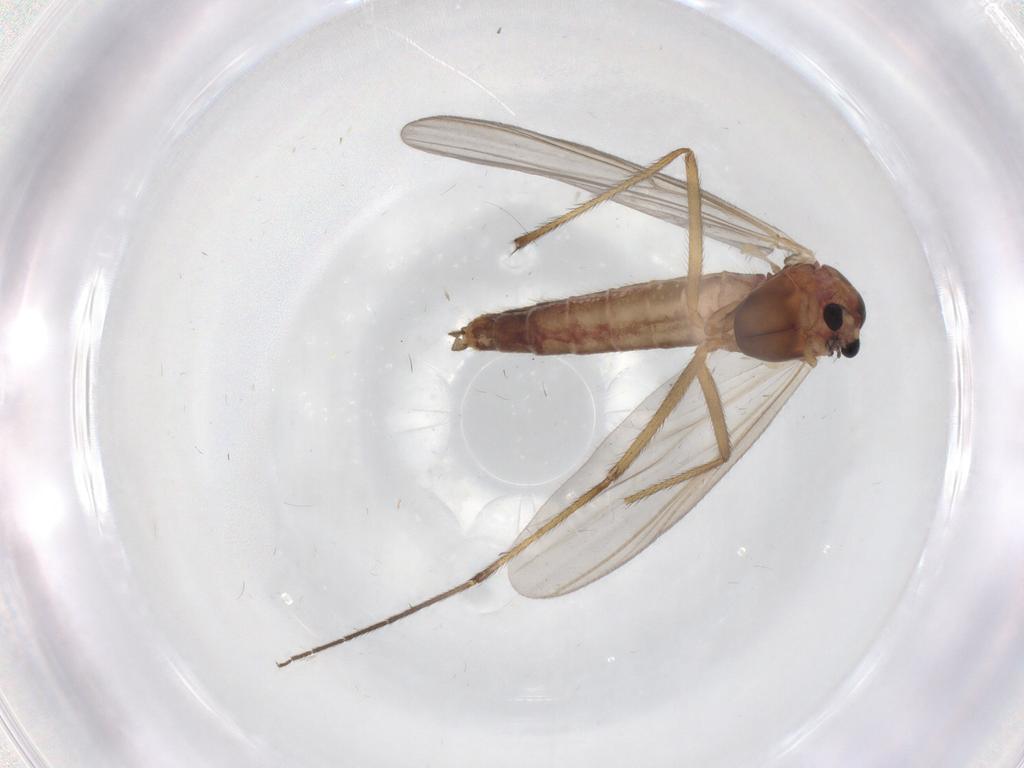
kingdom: Animalia
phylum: Arthropoda
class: Insecta
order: Diptera
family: Chironomidae
